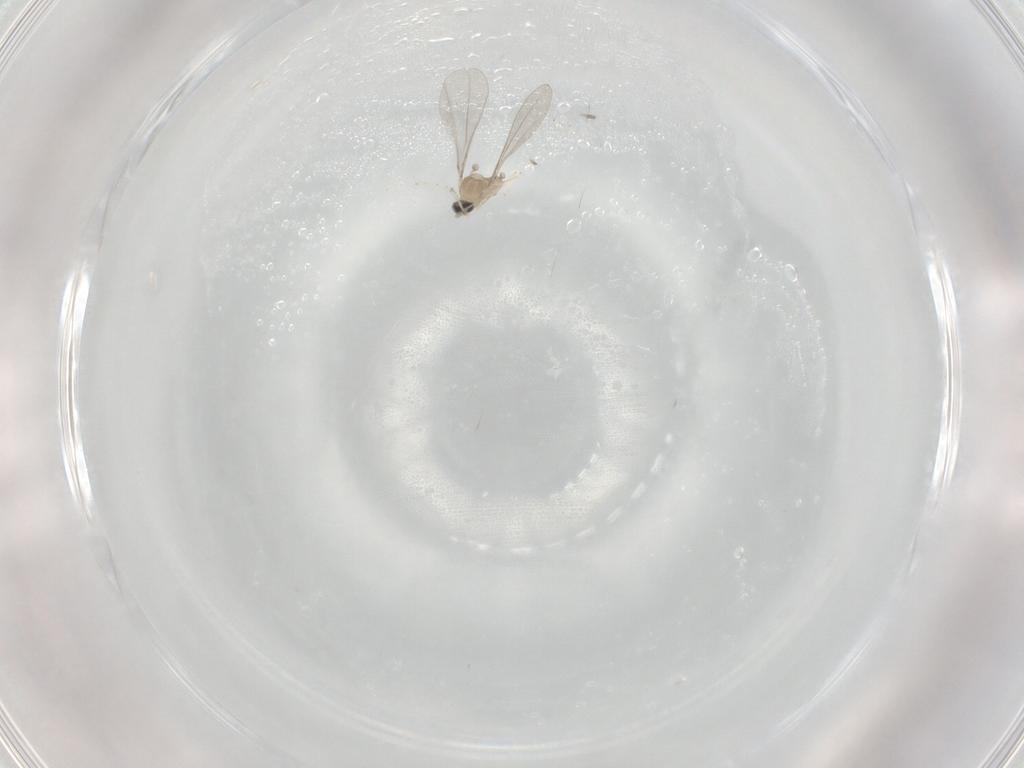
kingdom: Animalia
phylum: Arthropoda
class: Insecta
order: Diptera
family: Cecidomyiidae
